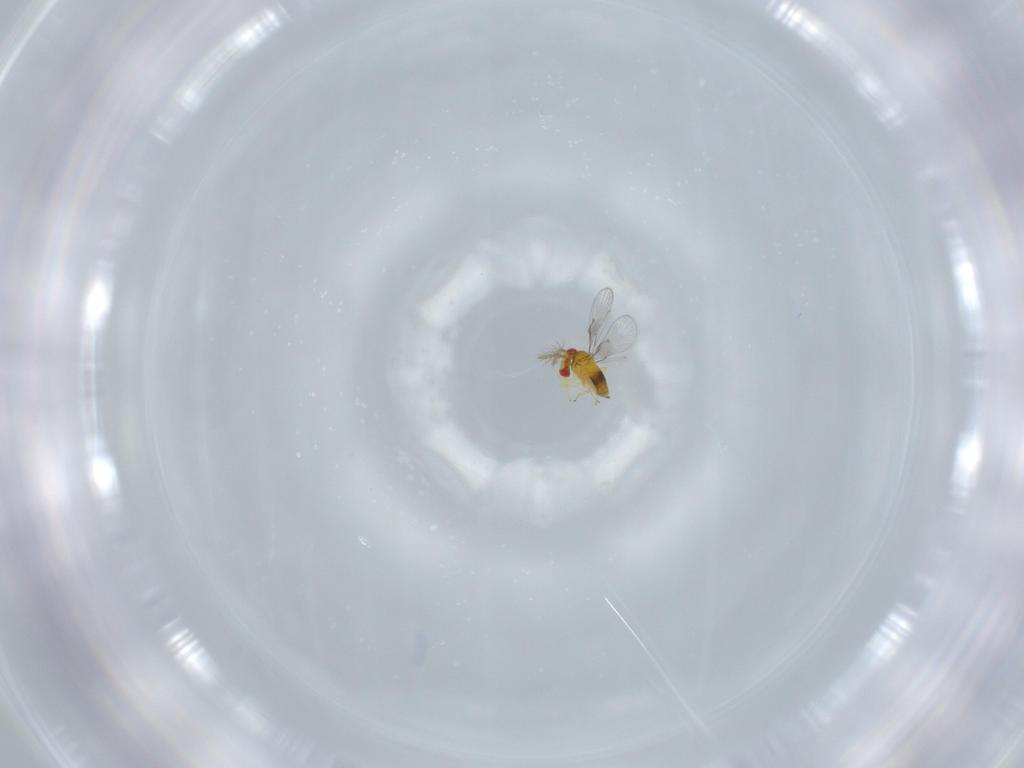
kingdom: Animalia
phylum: Arthropoda
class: Insecta
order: Hymenoptera
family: Trichogrammatidae
